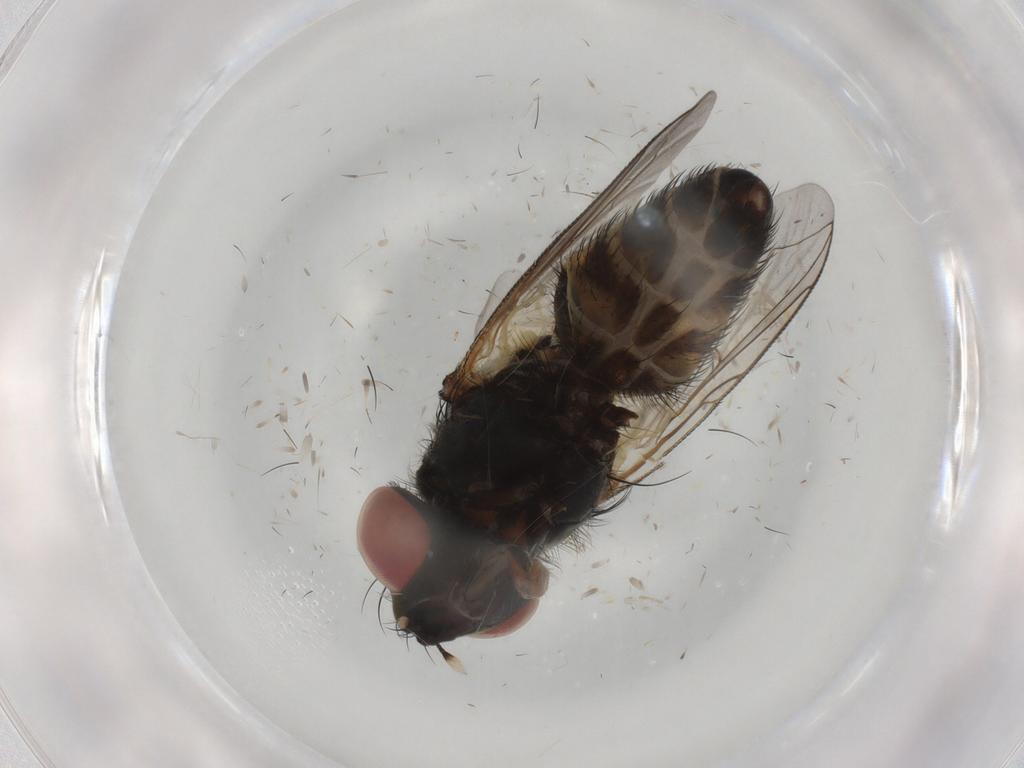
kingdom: Animalia
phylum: Arthropoda
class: Insecta
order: Diptera
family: Sarcophagidae
